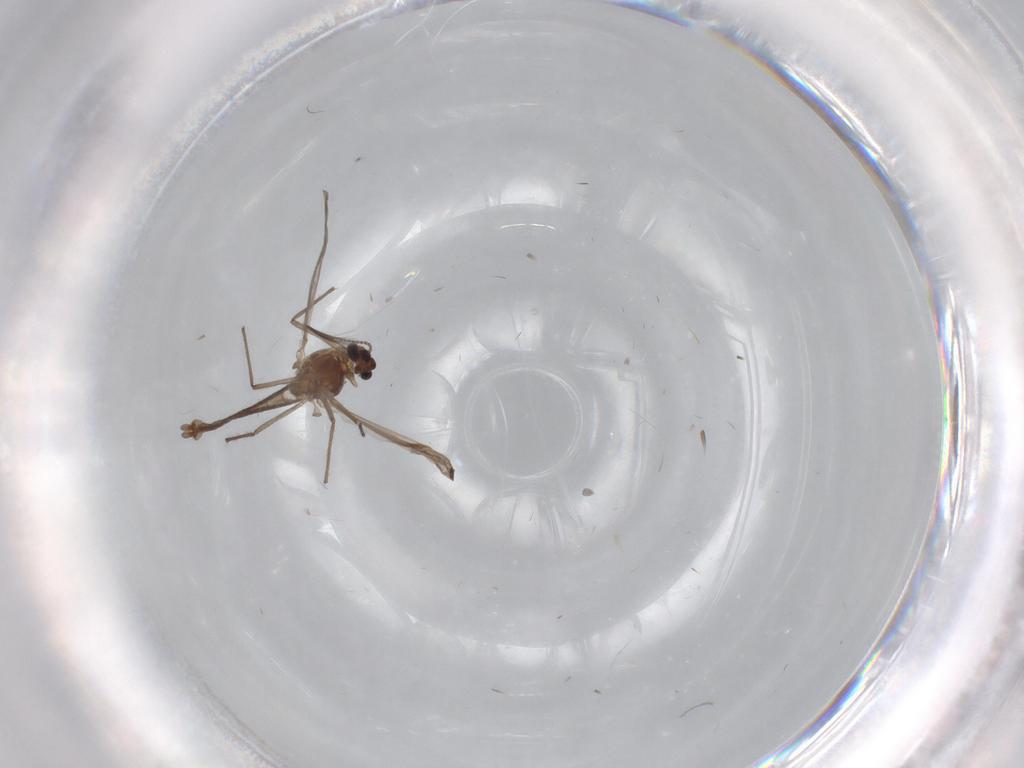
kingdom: Animalia
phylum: Arthropoda
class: Insecta
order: Diptera
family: Chironomidae
